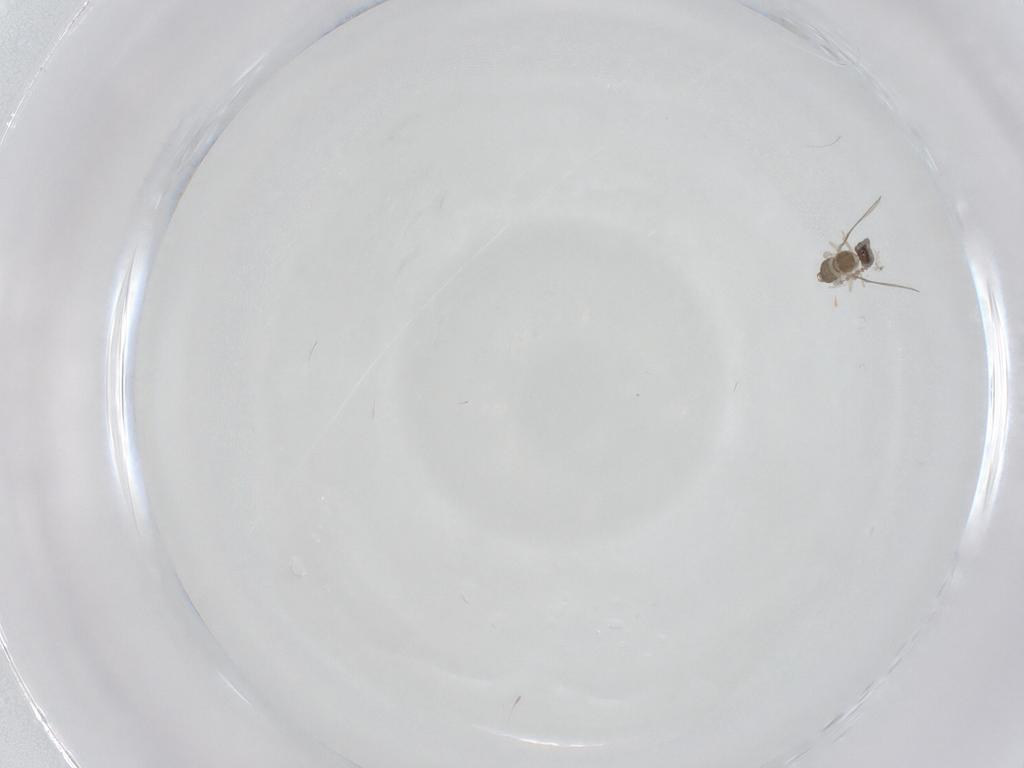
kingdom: Animalia
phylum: Arthropoda
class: Insecta
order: Diptera
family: Cecidomyiidae
